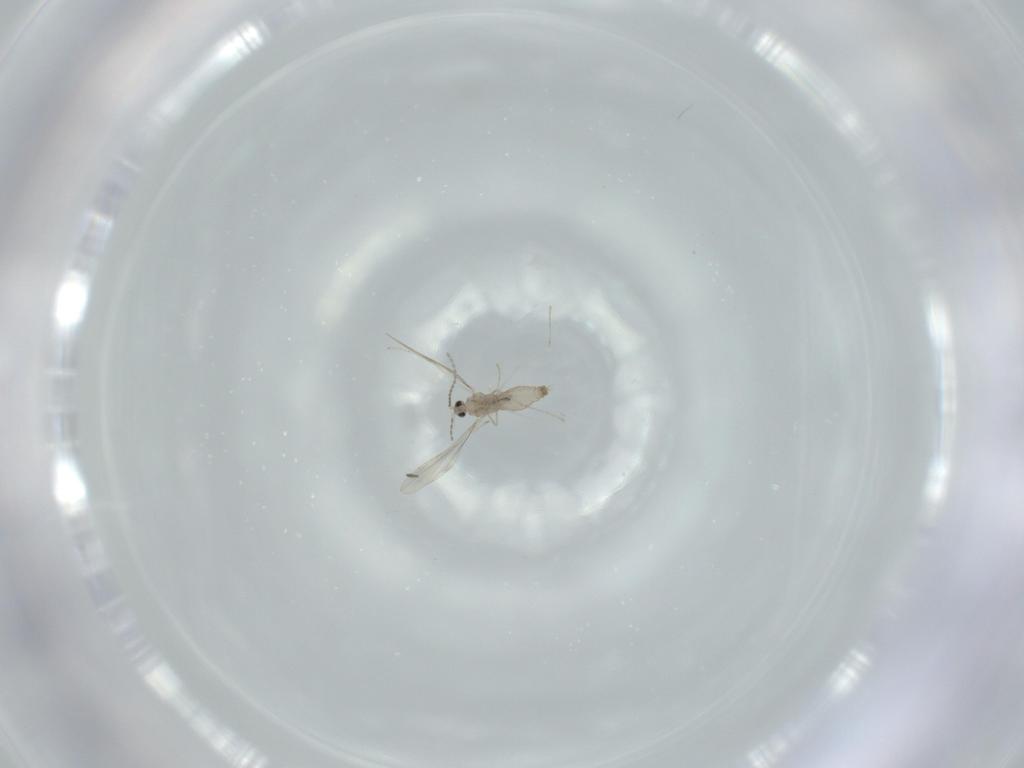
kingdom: Animalia
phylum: Arthropoda
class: Insecta
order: Diptera
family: Cecidomyiidae
